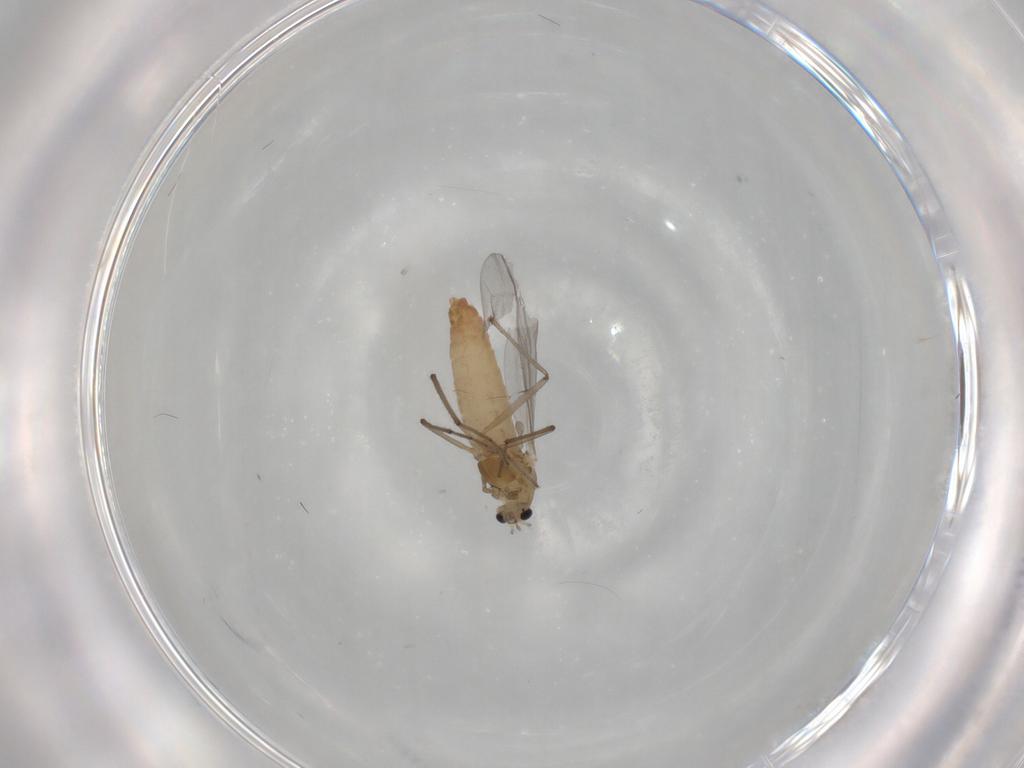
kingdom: Animalia
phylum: Arthropoda
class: Insecta
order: Diptera
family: Chironomidae
